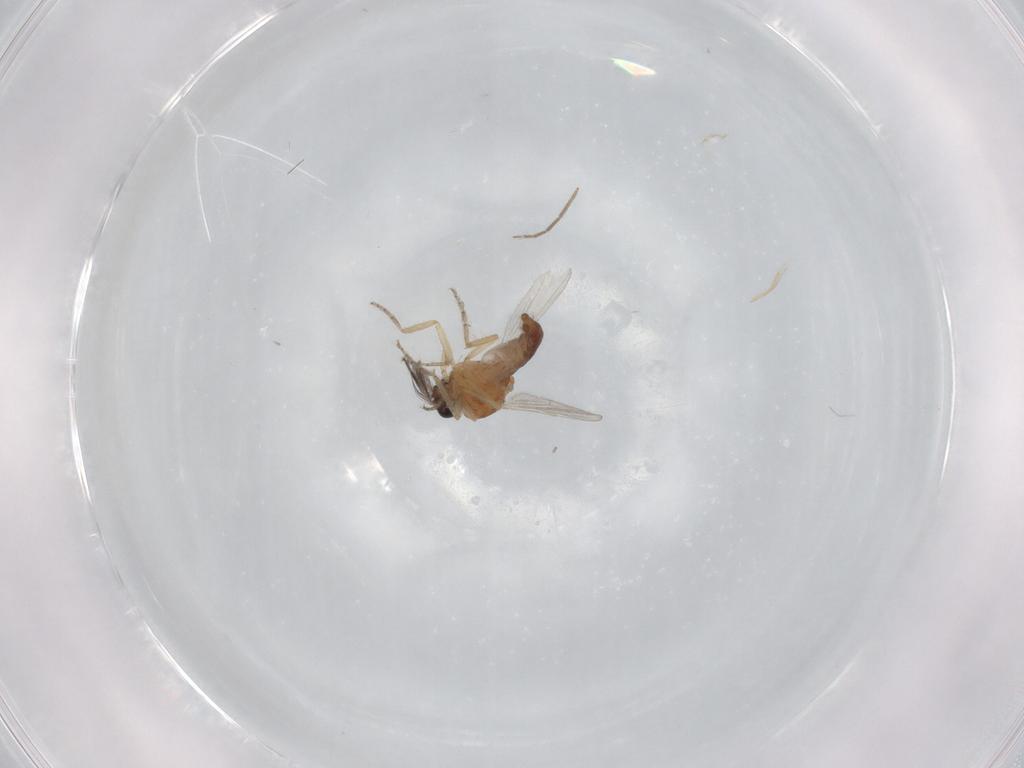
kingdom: Animalia
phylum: Arthropoda
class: Insecta
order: Diptera
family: Ceratopogonidae
